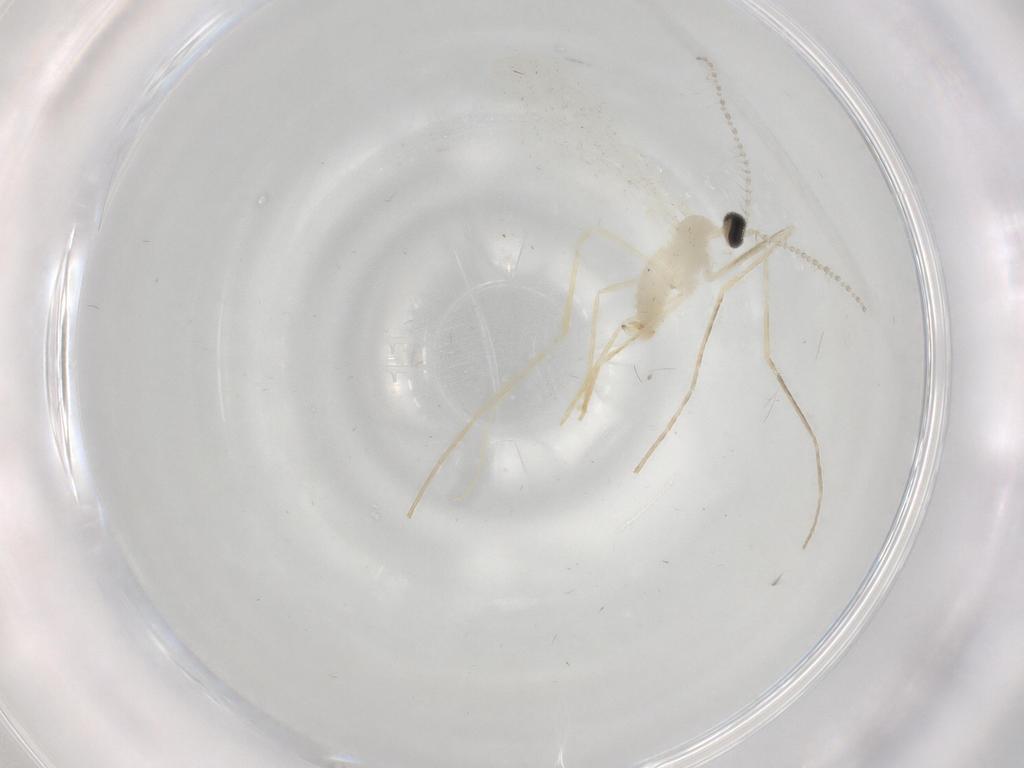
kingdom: Animalia
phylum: Arthropoda
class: Insecta
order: Diptera
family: Cecidomyiidae
